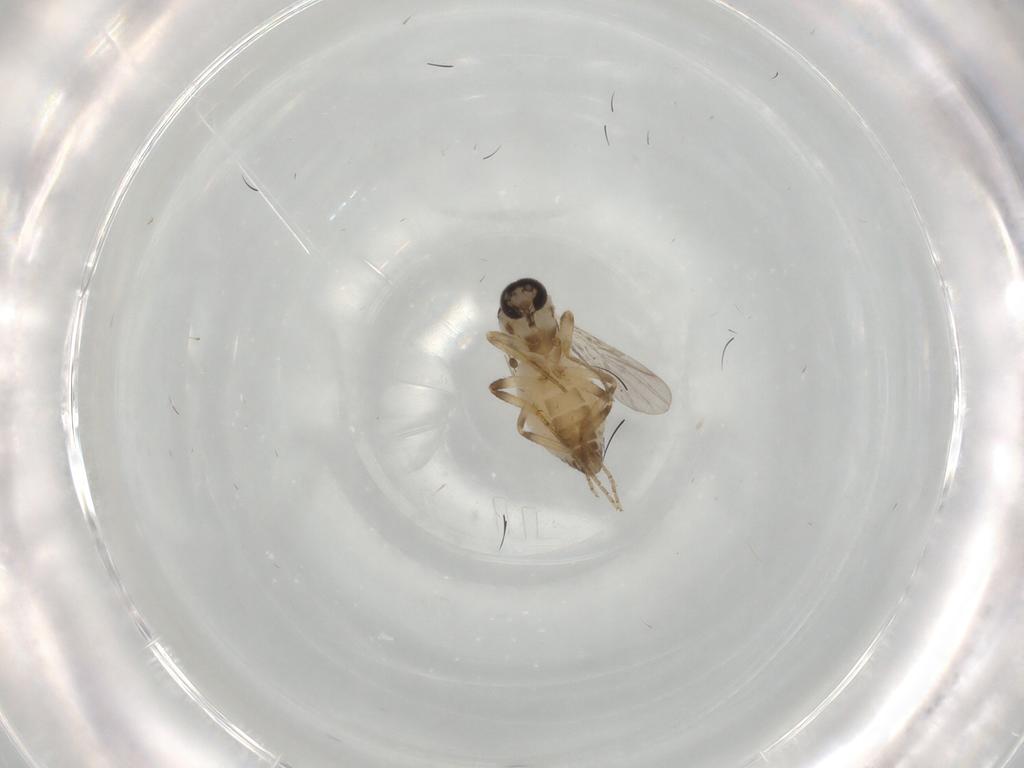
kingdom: Animalia
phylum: Arthropoda
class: Insecta
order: Diptera
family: Ceratopogonidae
